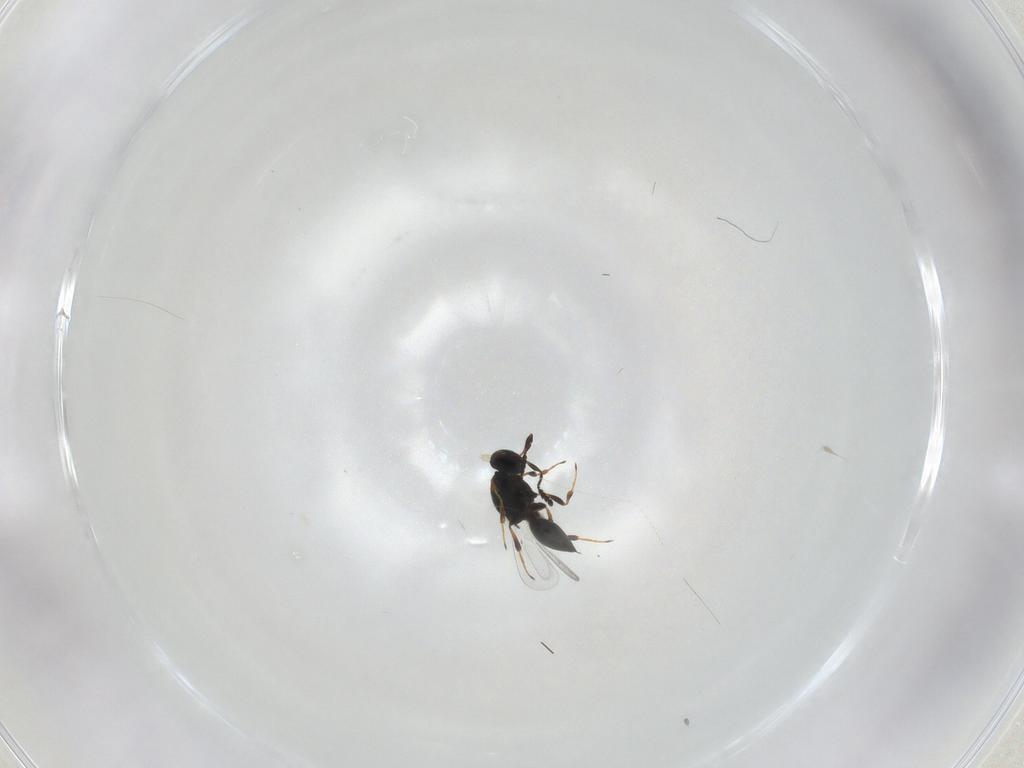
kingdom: Animalia
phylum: Arthropoda
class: Insecta
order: Hymenoptera
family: Platygastridae
